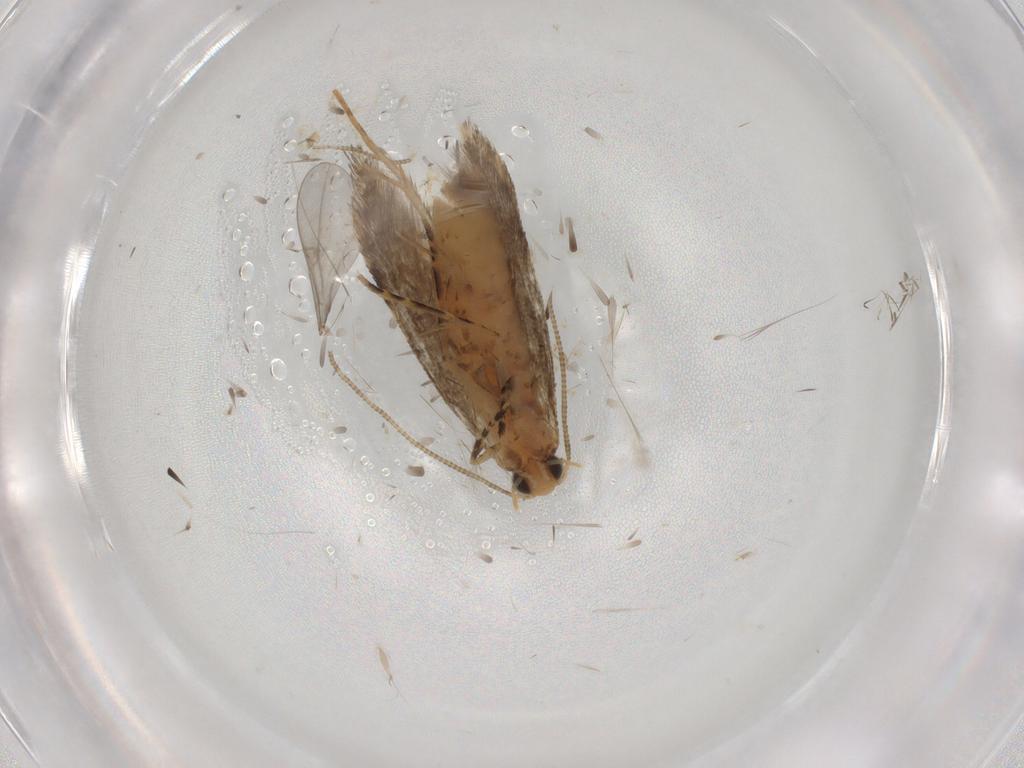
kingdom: Animalia
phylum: Arthropoda
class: Insecta
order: Lepidoptera
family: Tineidae
